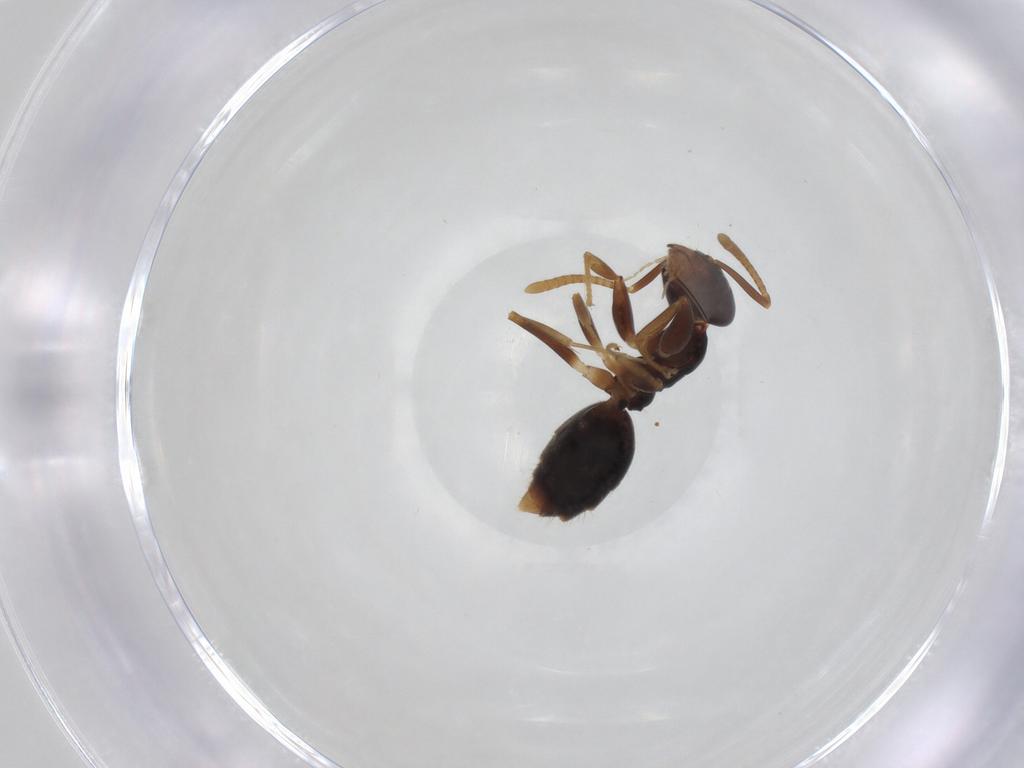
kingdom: Animalia
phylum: Arthropoda
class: Insecta
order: Hymenoptera
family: Formicidae
